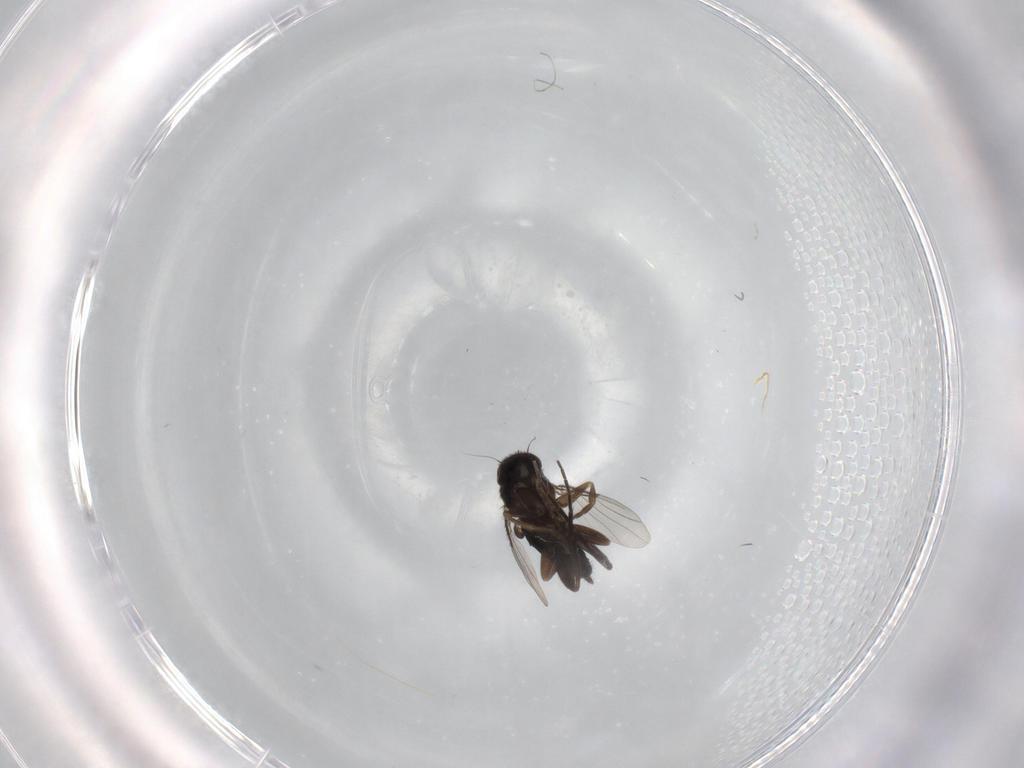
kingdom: Animalia
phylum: Arthropoda
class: Insecta
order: Diptera
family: Phoridae
